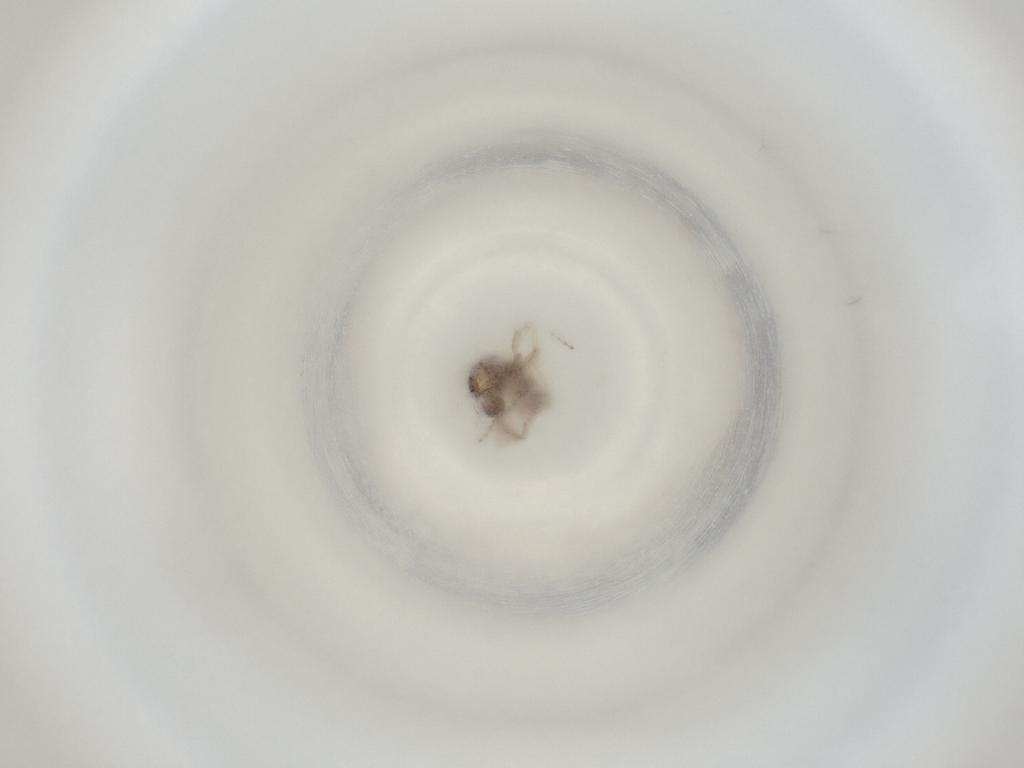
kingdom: Animalia
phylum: Arthropoda
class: Insecta
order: Diptera
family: Cecidomyiidae
